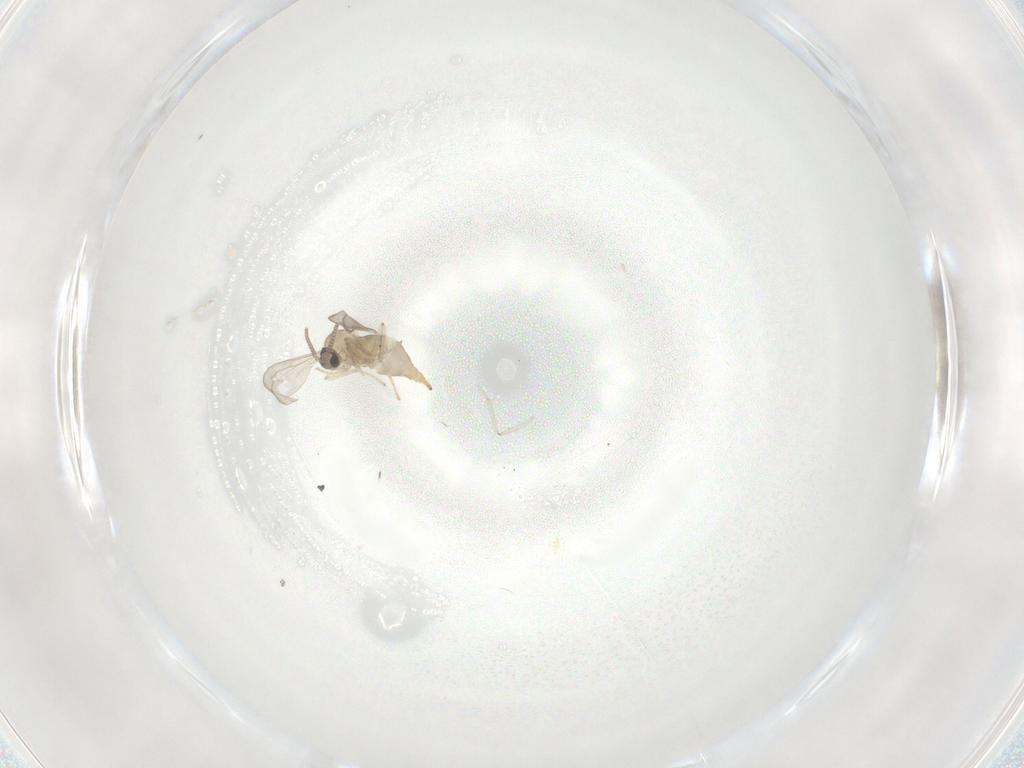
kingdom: Animalia
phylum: Arthropoda
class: Insecta
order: Diptera
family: Cecidomyiidae
